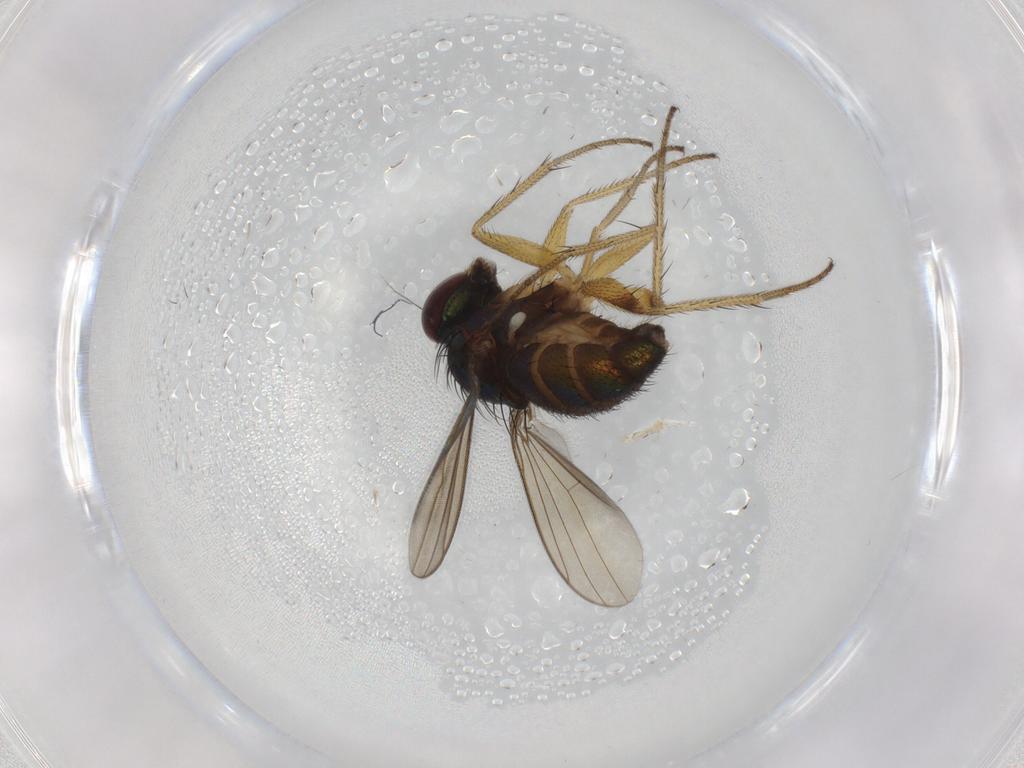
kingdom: Animalia
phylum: Arthropoda
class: Insecta
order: Diptera
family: Dolichopodidae
